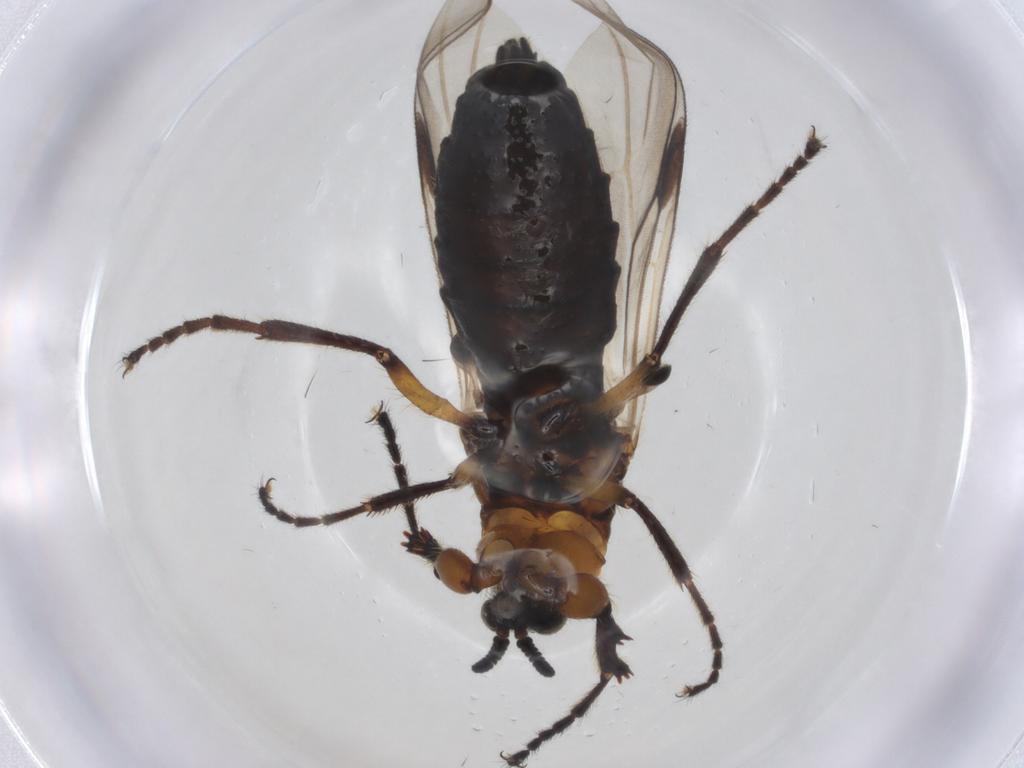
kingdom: Animalia
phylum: Arthropoda
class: Insecta
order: Diptera
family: Bibionidae
